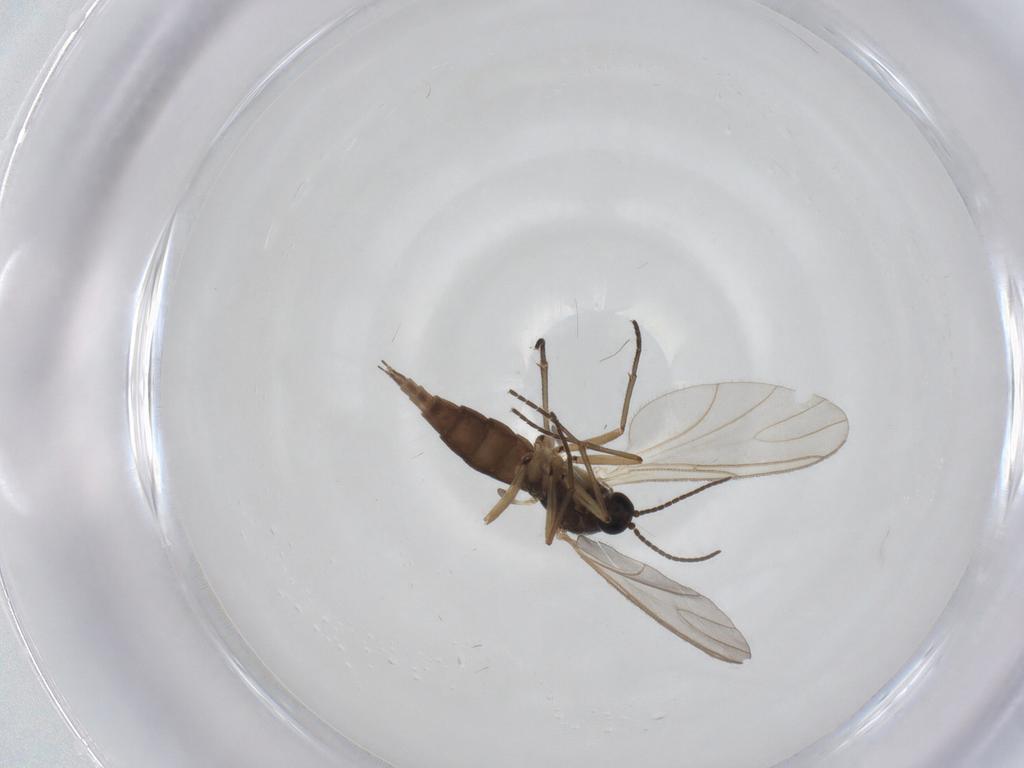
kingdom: Animalia
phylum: Arthropoda
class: Insecta
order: Diptera
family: Sciaridae
